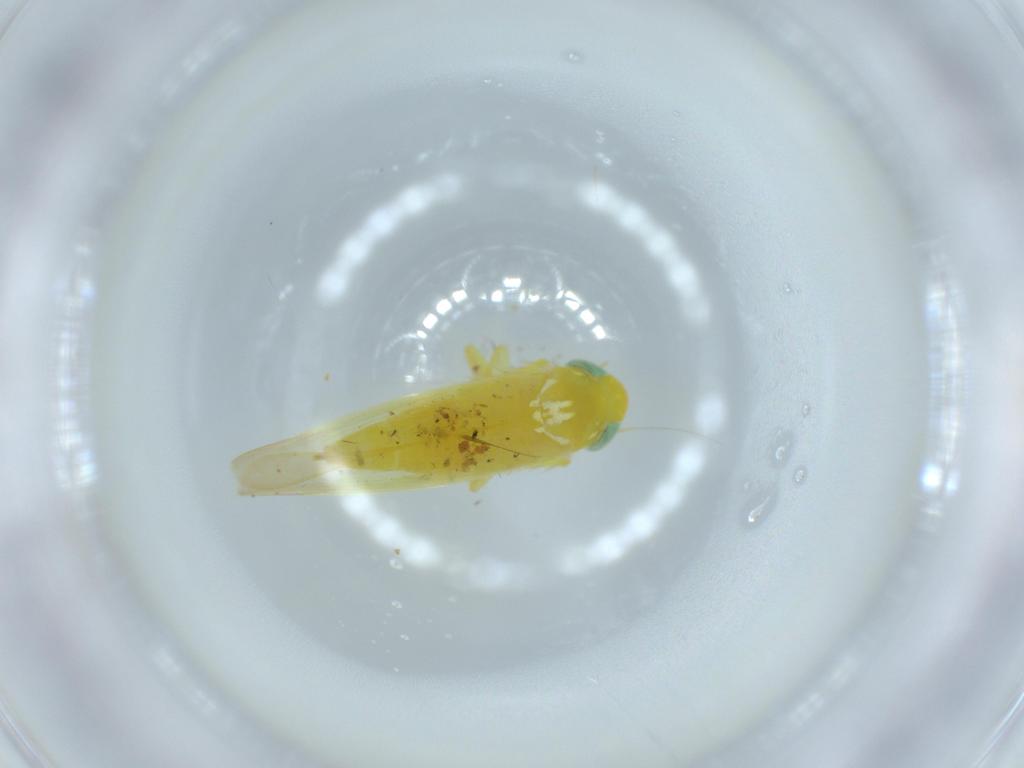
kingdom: Animalia
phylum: Arthropoda
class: Insecta
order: Hemiptera
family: Cicadellidae
